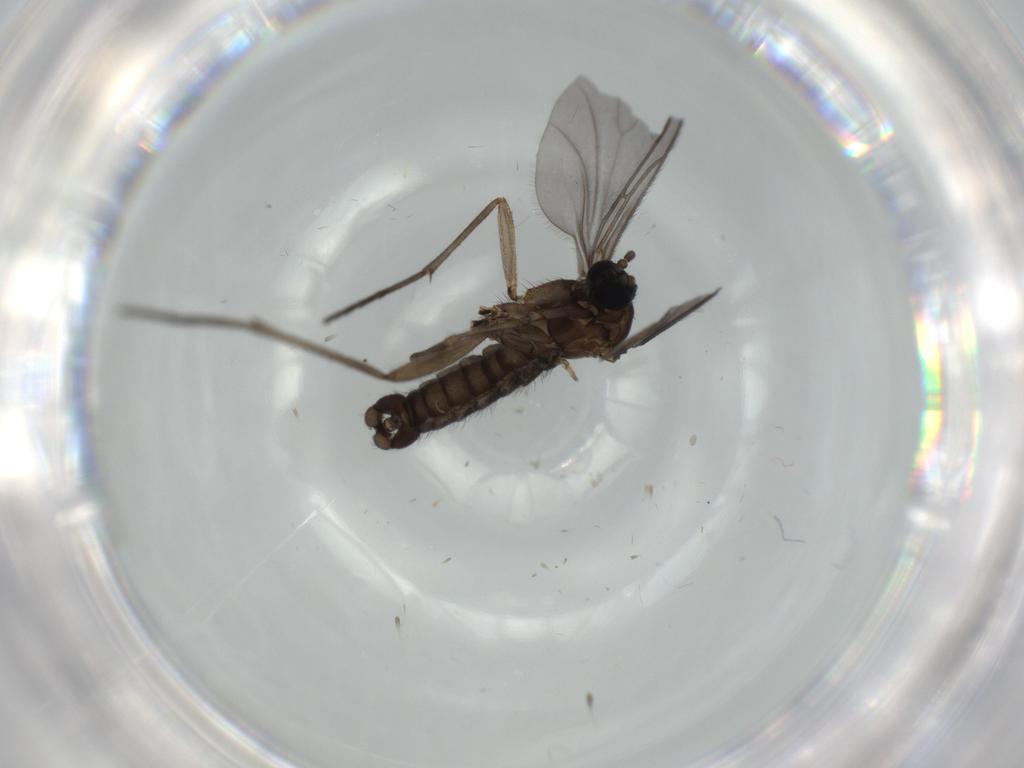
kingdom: Animalia
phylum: Arthropoda
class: Insecta
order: Diptera
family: Sciaridae
